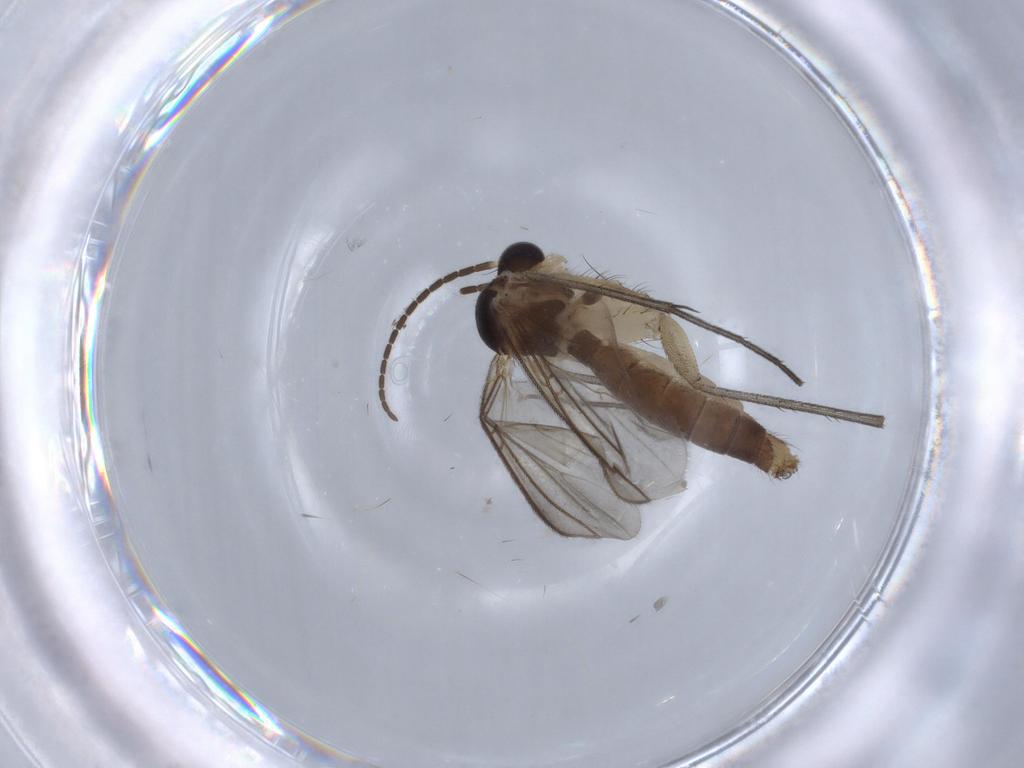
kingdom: Animalia
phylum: Arthropoda
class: Insecta
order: Diptera
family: Mycetophilidae
